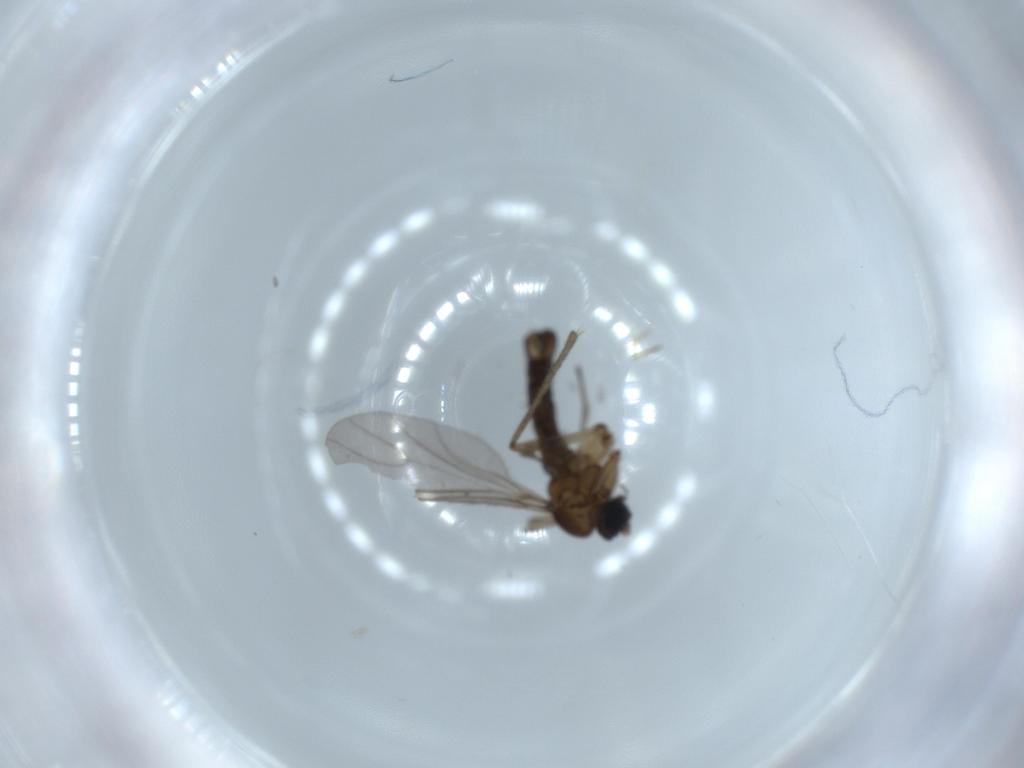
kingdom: Animalia
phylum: Arthropoda
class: Insecta
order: Diptera
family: Sciaridae
